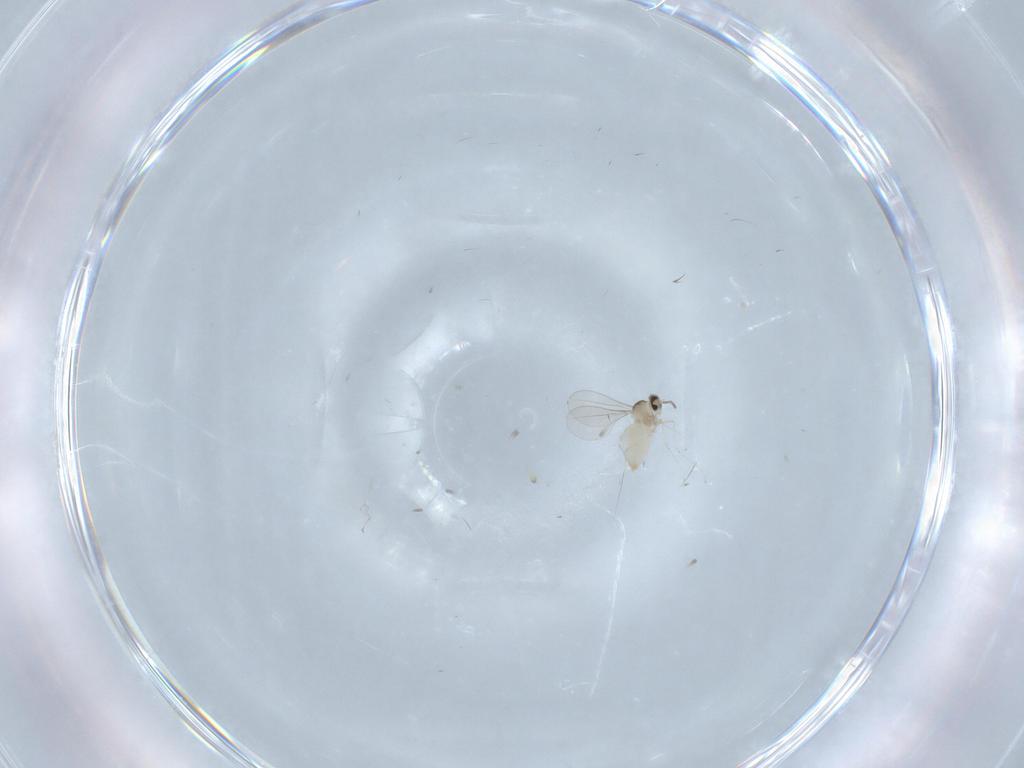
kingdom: Animalia
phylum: Arthropoda
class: Insecta
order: Diptera
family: Ceratopogonidae
